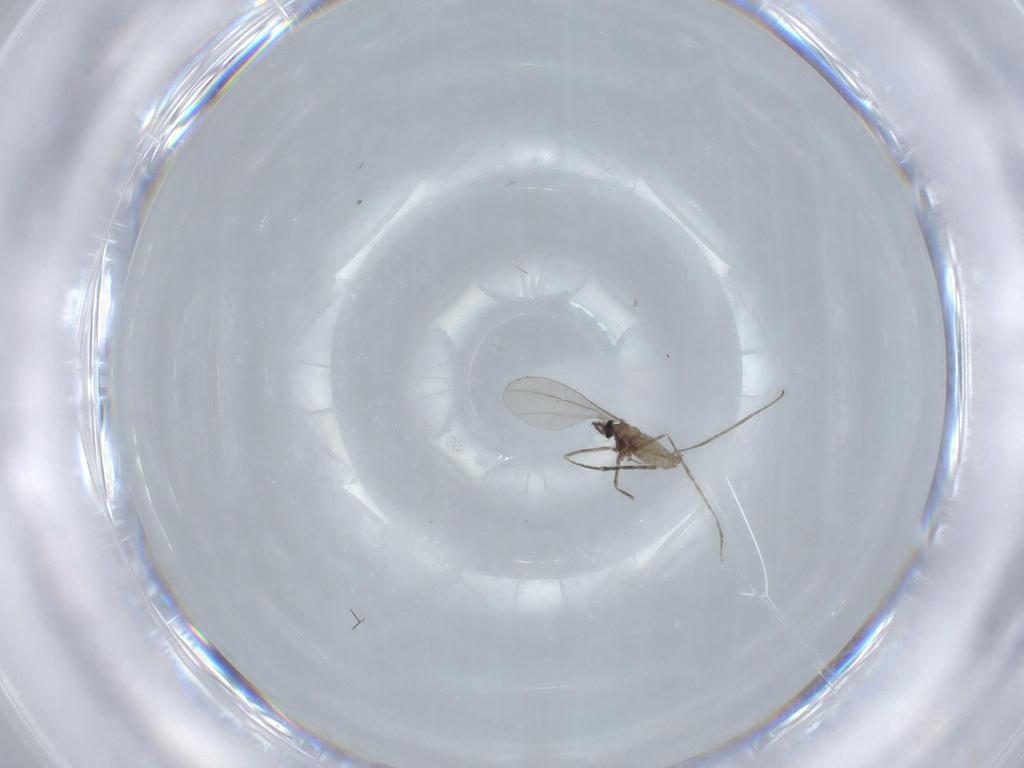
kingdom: Animalia
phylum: Arthropoda
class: Insecta
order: Diptera
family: Cecidomyiidae
